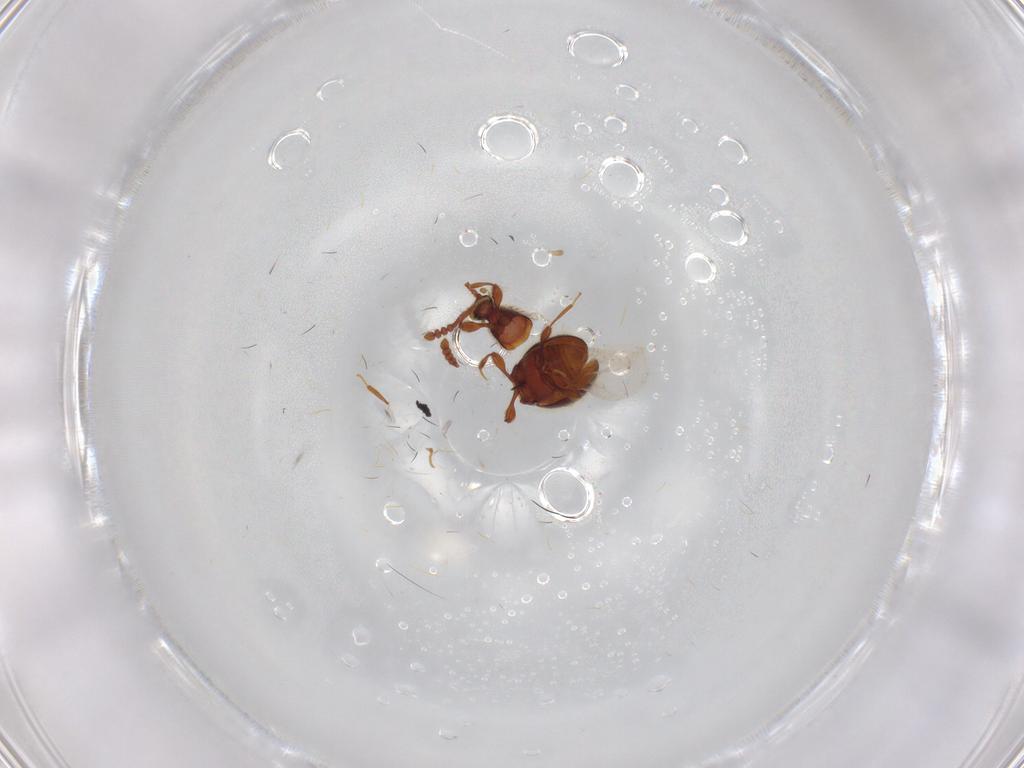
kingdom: Animalia
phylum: Arthropoda
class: Insecta
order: Coleoptera
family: Staphylinidae
